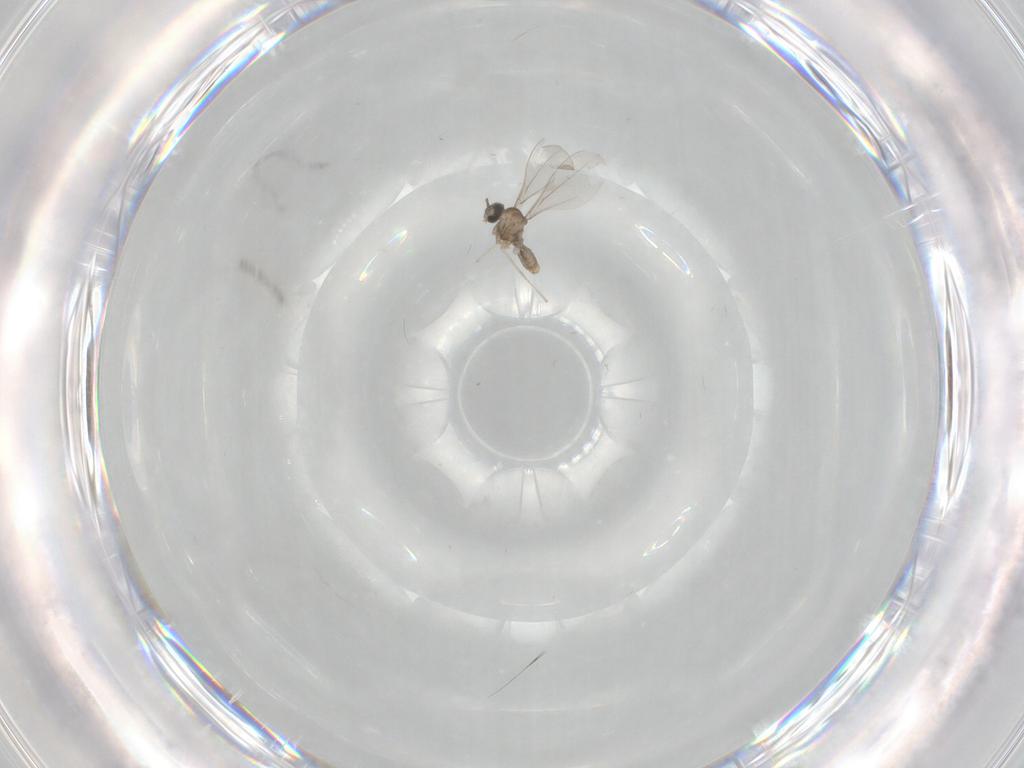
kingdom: Animalia
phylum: Arthropoda
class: Insecta
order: Diptera
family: Cecidomyiidae
